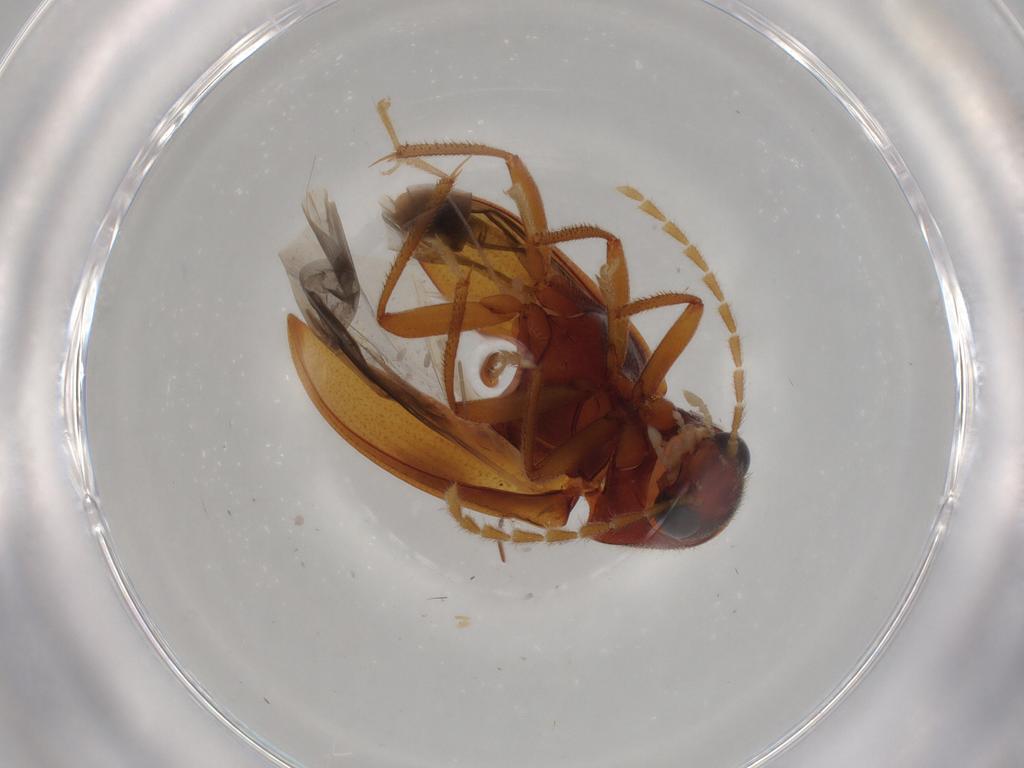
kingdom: Animalia
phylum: Arthropoda
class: Insecta
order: Coleoptera
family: Ptilodactylidae
